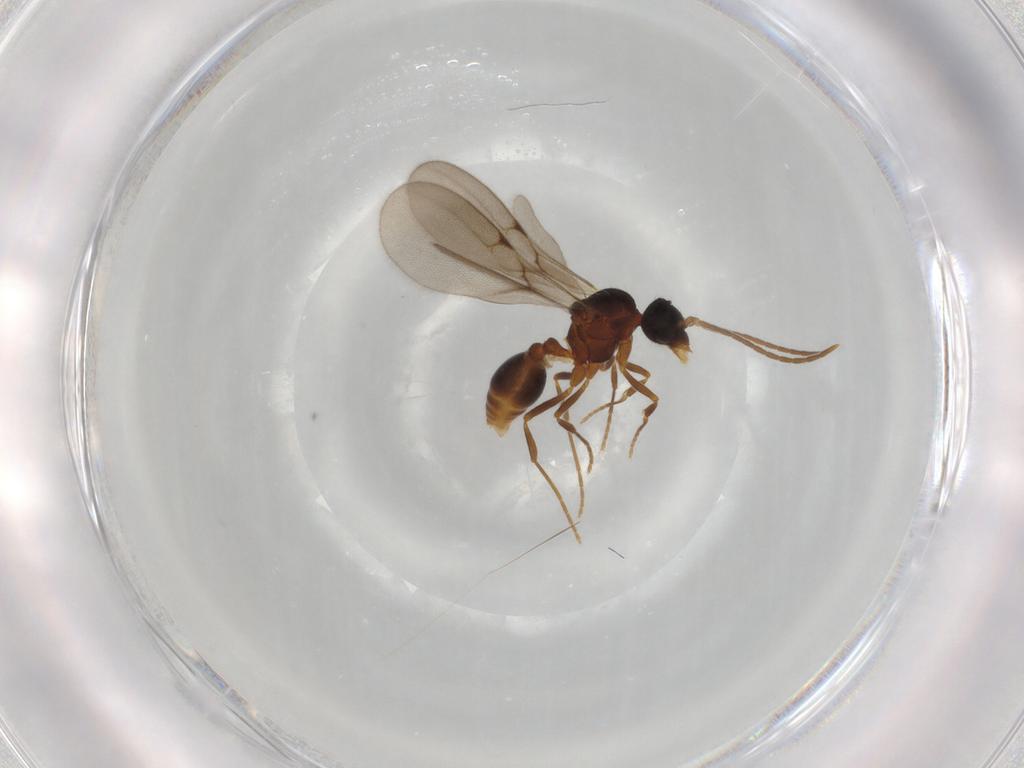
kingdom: Animalia
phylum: Arthropoda
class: Insecta
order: Hymenoptera
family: Formicidae
